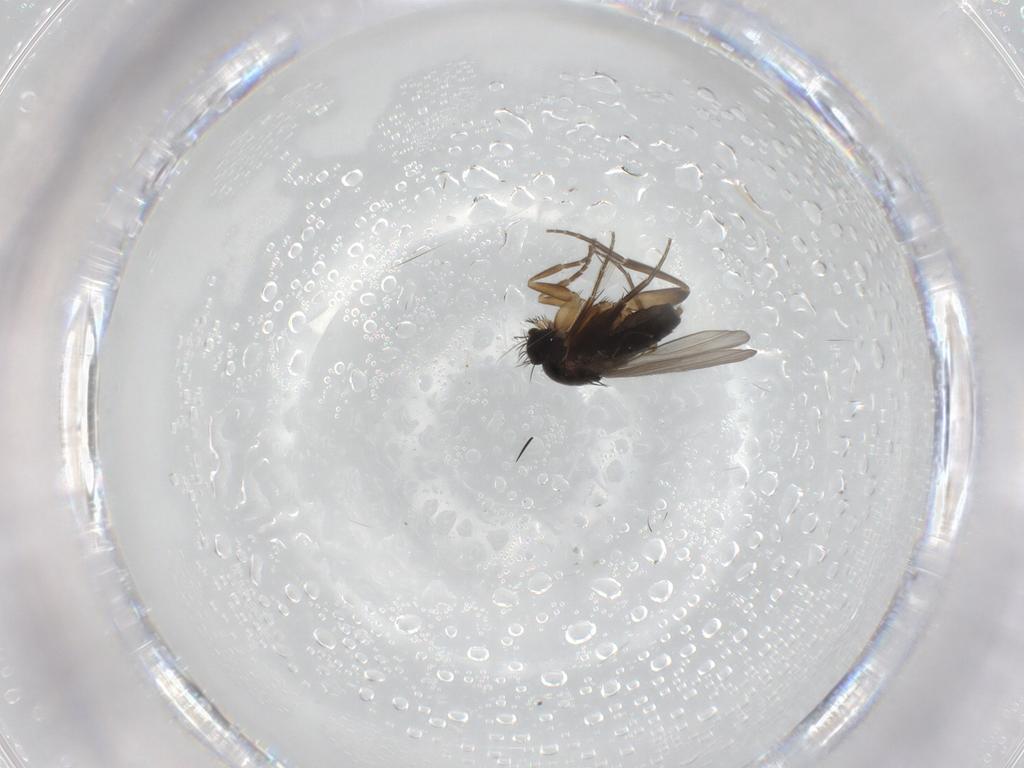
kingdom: Animalia
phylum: Arthropoda
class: Insecta
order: Diptera
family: Phoridae
